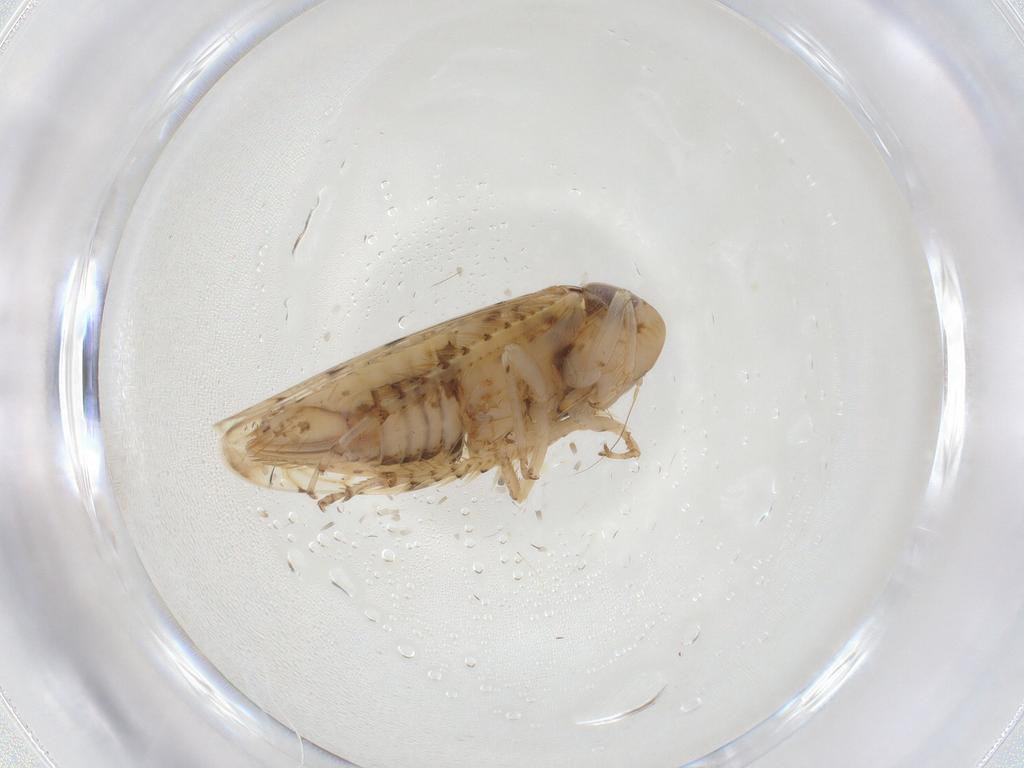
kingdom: Animalia
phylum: Arthropoda
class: Insecta
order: Hemiptera
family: Cicadellidae
